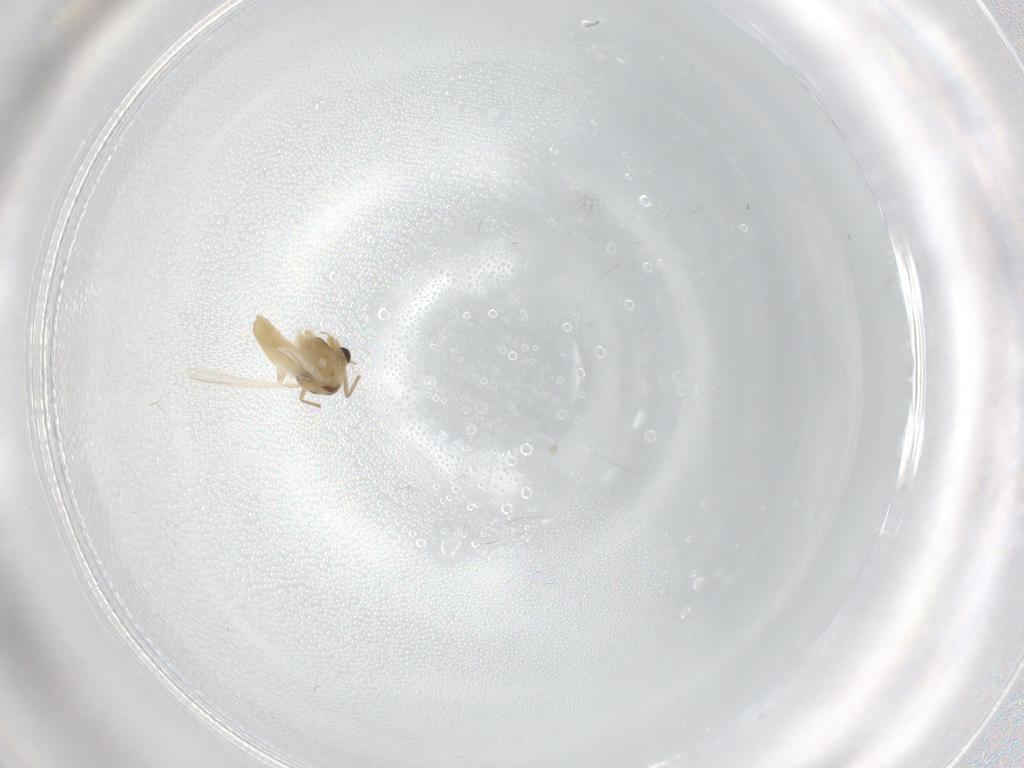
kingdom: Animalia
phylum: Arthropoda
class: Insecta
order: Diptera
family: Chironomidae
